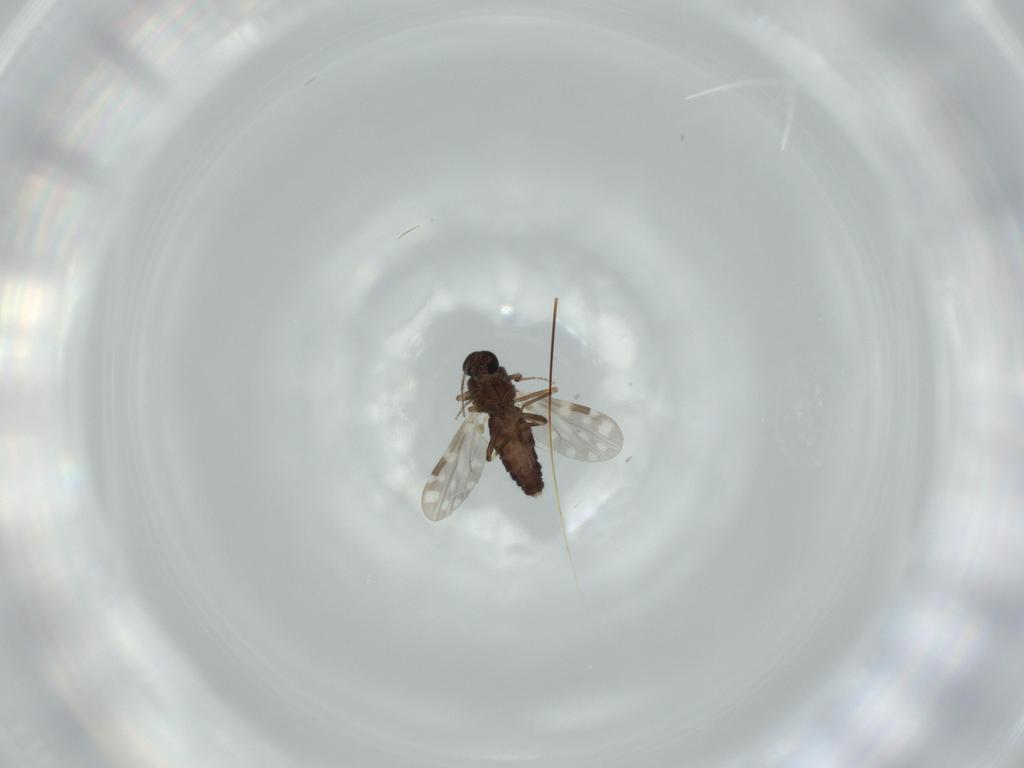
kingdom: Animalia
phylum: Arthropoda
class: Insecta
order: Diptera
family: Cecidomyiidae
